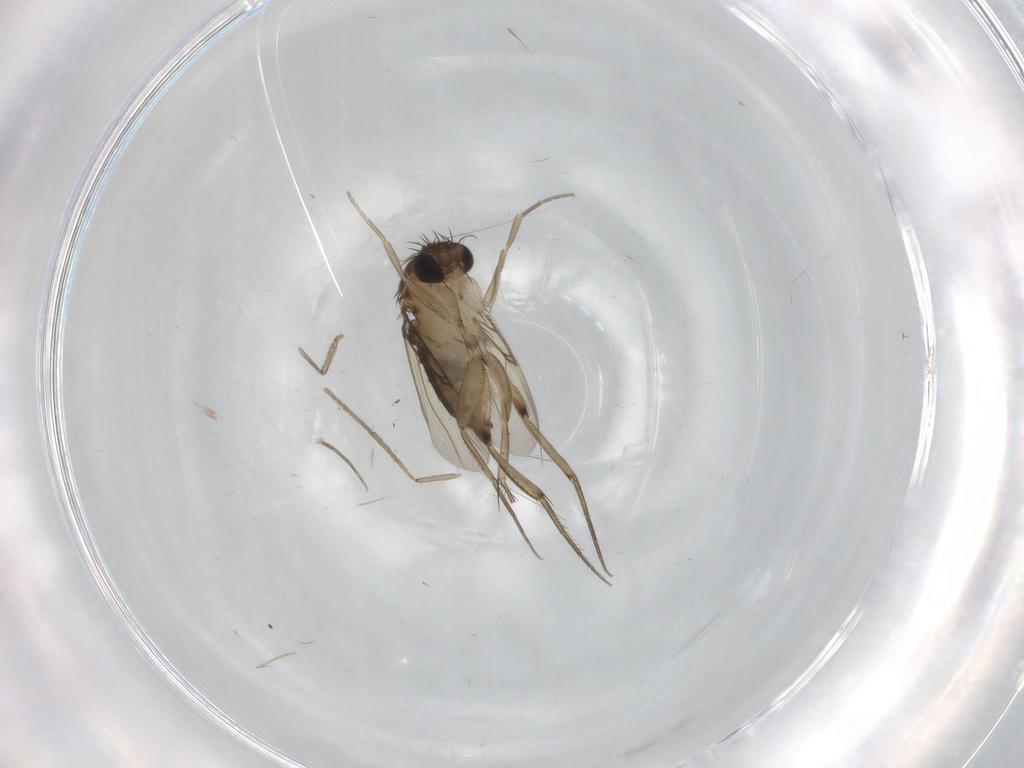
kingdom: Animalia
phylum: Arthropoda
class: Insecta
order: Diptera
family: Phoridae
